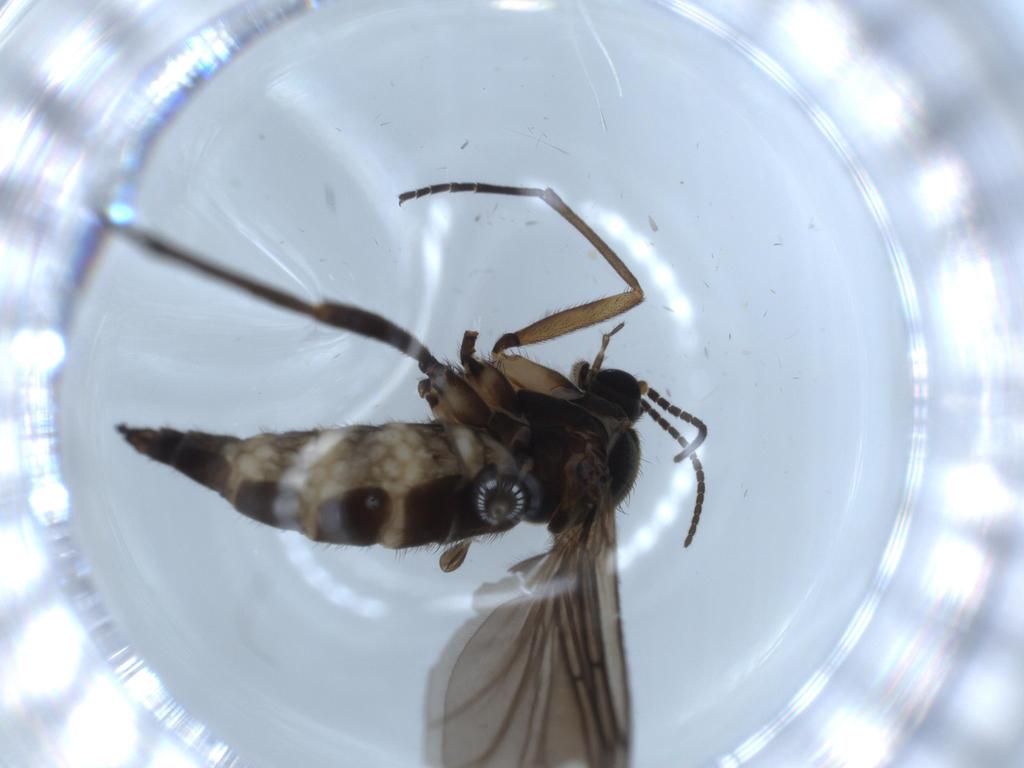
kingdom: Animalia
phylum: Arthropoda
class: Insecta
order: Diptera
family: Sciaridae
